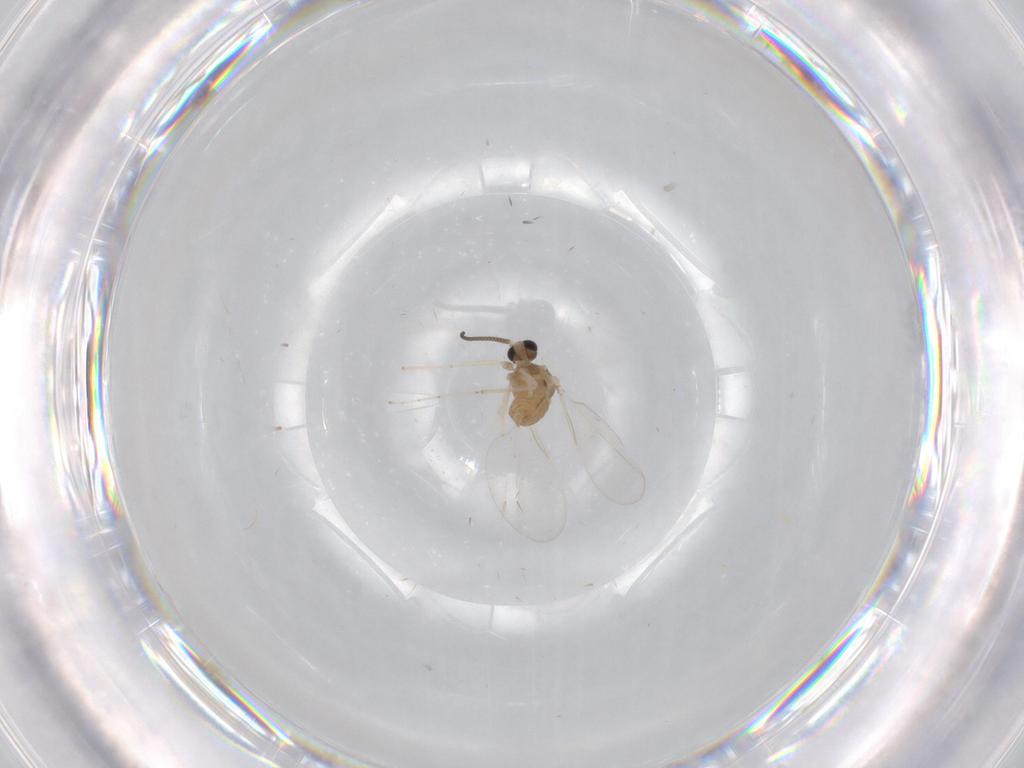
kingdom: Animalia
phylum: Arthropoda
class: Insecta
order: Diptera
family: Cecidomyiidae
